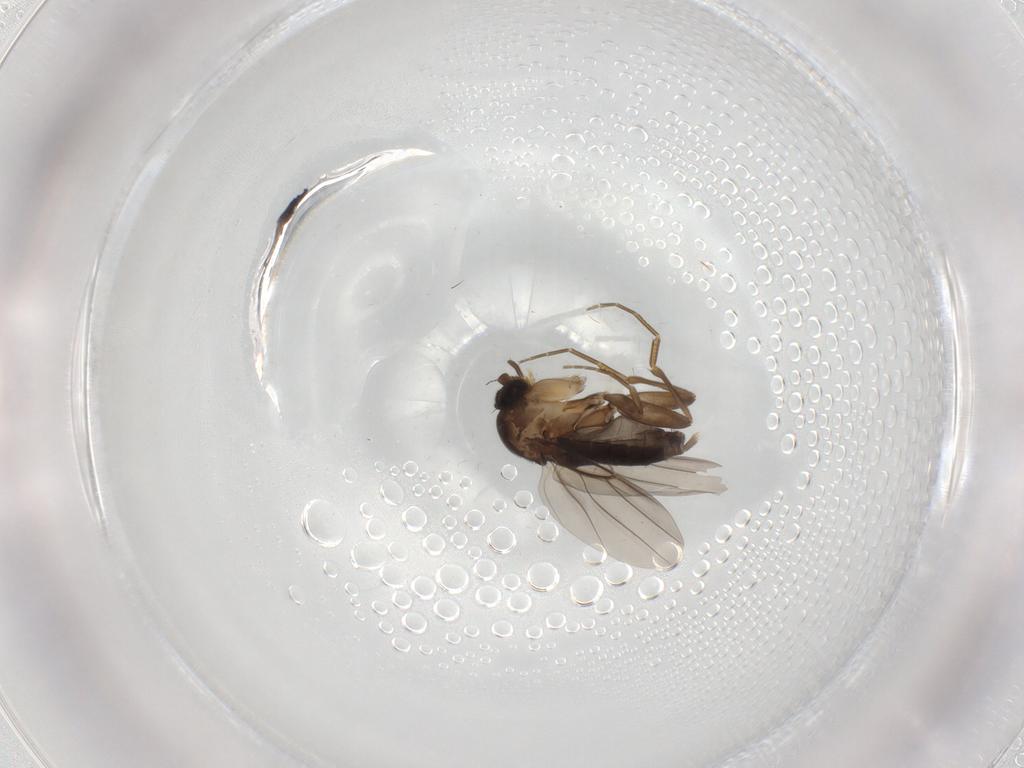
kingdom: Animalia
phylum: Arthropoda
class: Insecta
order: Diptera
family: Phoridae
